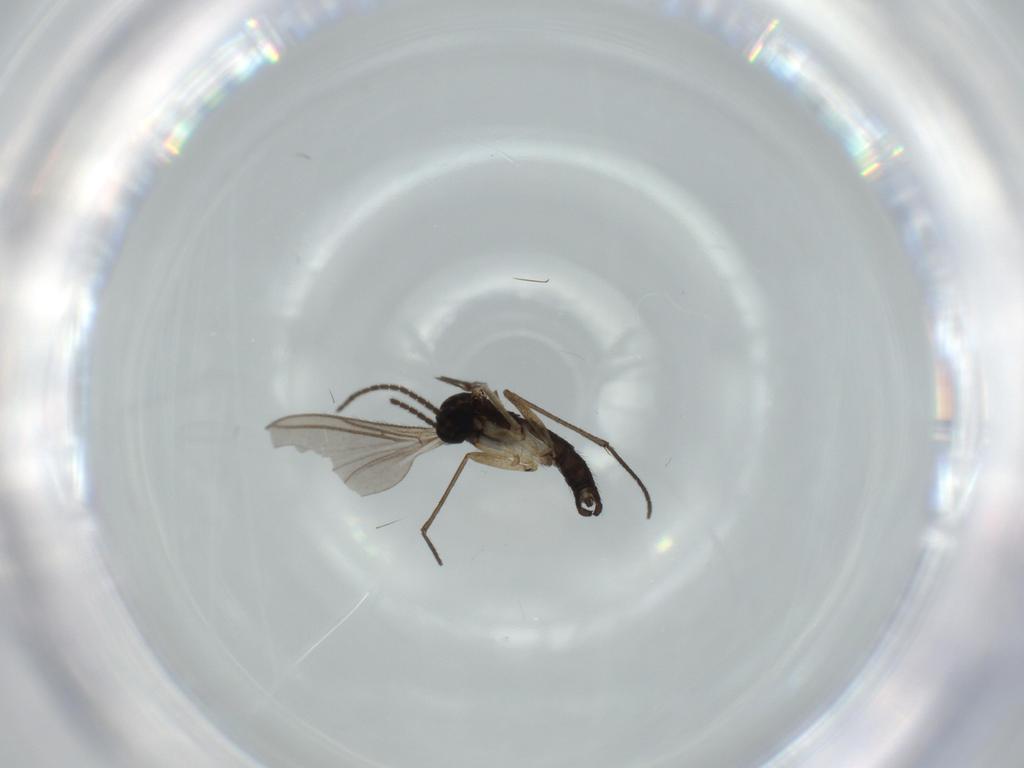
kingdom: Animalia
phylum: Arthropoda
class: Insecta
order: Diptera
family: Sciaridae
